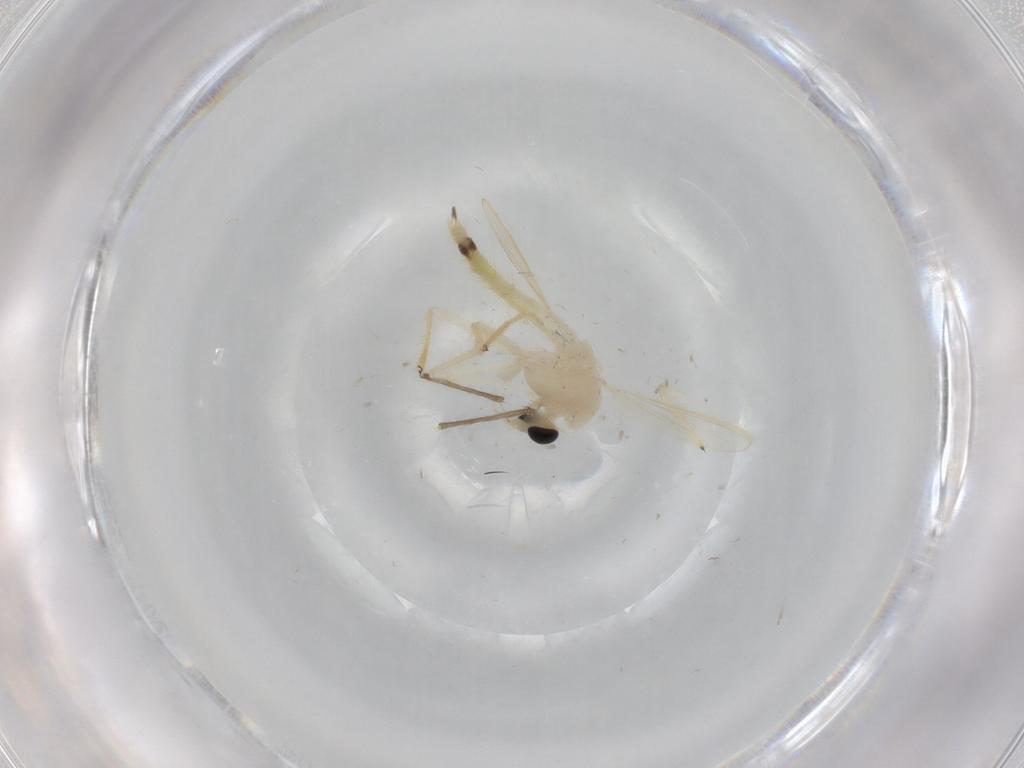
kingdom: Animalia
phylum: Arthropoda
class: Insecta
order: Diptera
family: Chironomidae
